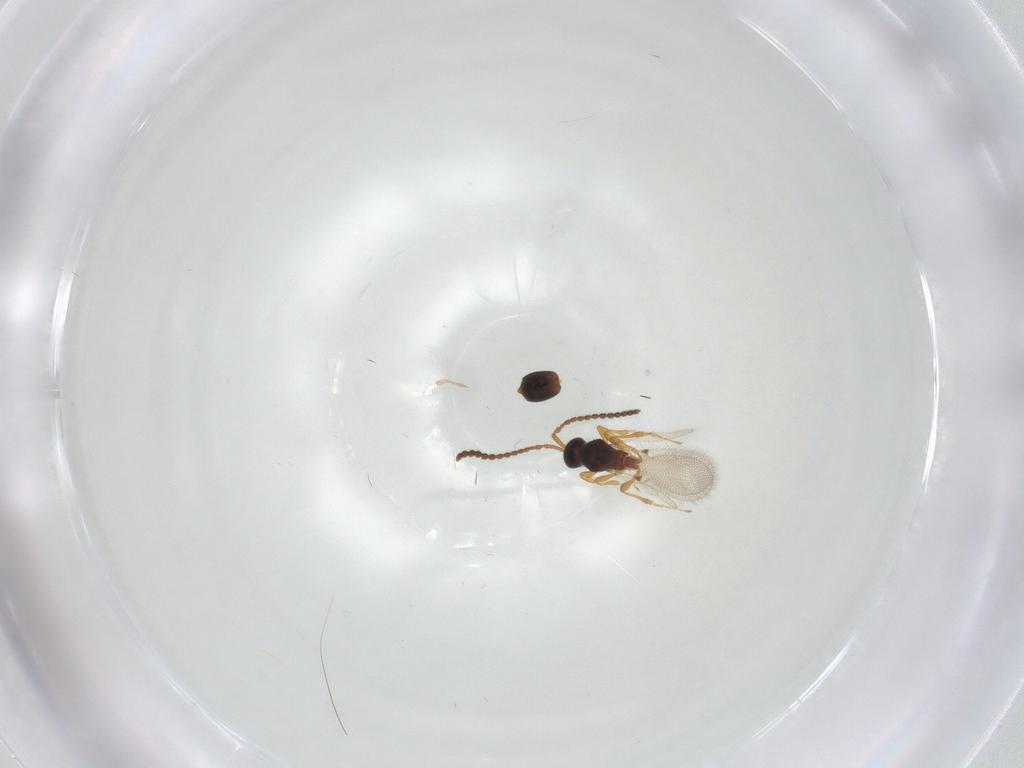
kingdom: Animalia
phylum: Arthropoda
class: Insecta
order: Hymenoptera
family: Diapriidae
